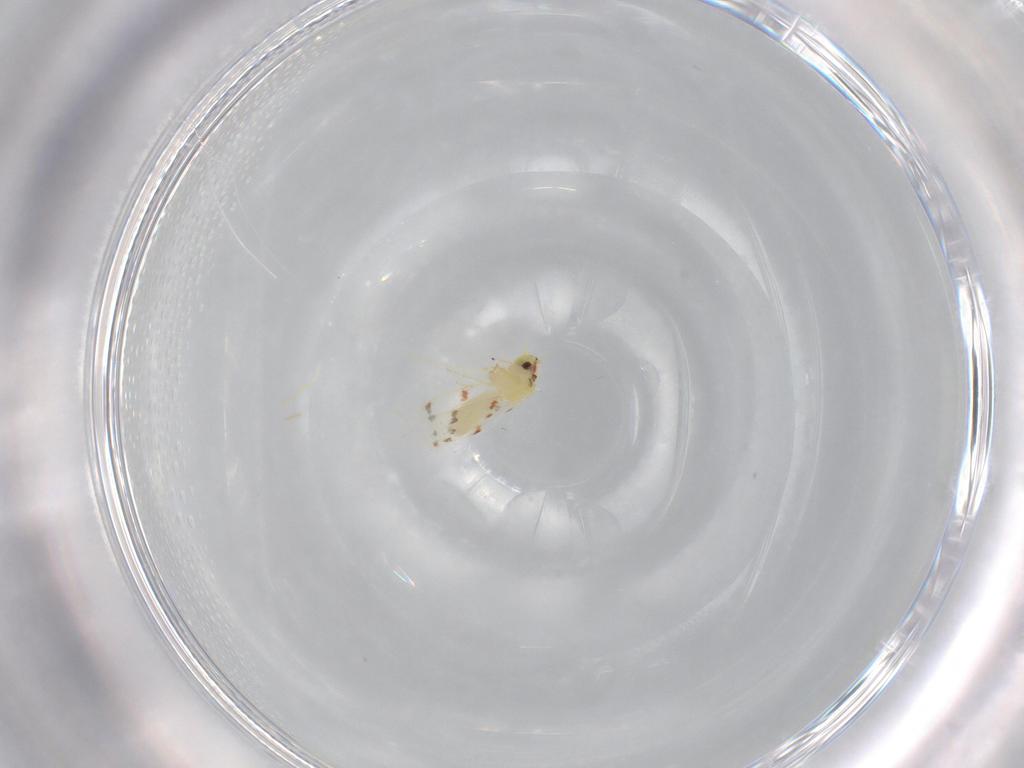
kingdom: Animalia
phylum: Arthropoda
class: Insecta
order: Hemiptera
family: Aleyrodidae
